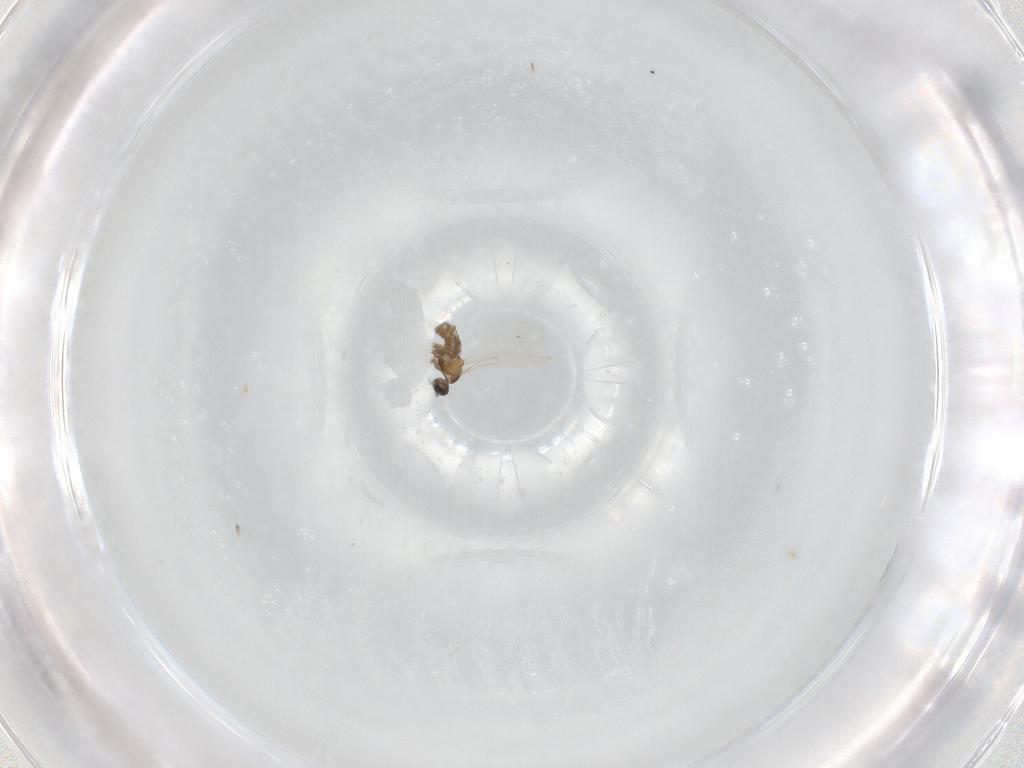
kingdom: Animalia
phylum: Arthropoda
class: Insecta
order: Diptera
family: Cecidomyiidae
